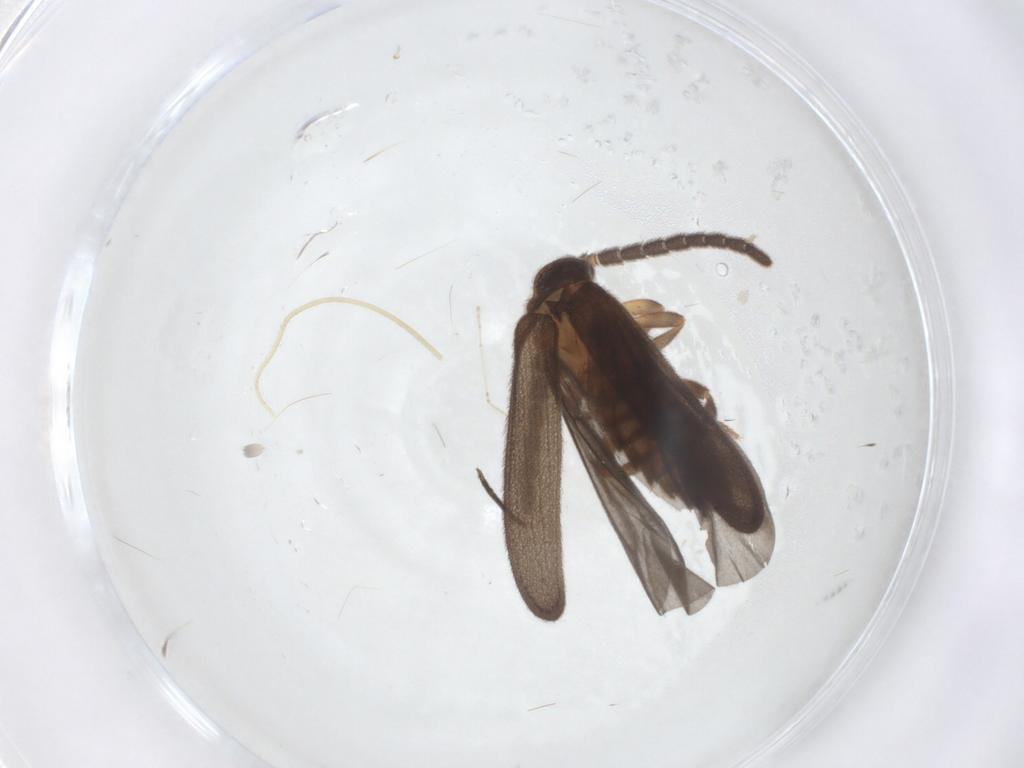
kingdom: Animalia
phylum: Arthropoda
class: Insecta
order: Coleoptera
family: Lycidae
